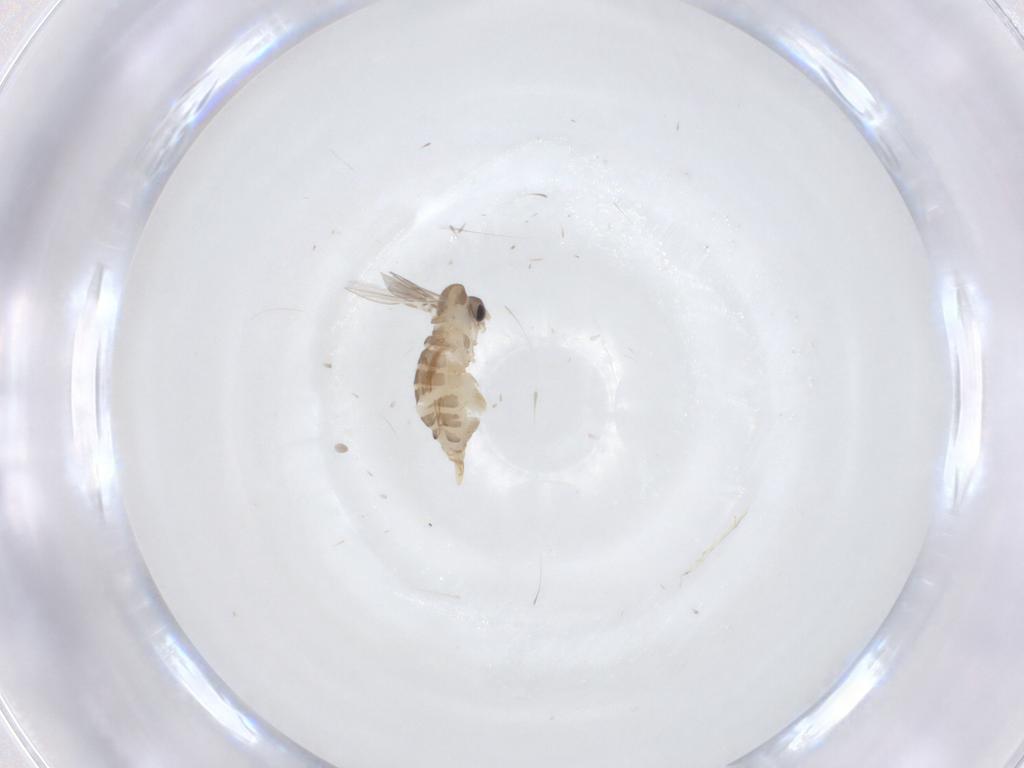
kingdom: Animalia
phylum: Arthropoda
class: Insecta
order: Diptera
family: Psychodidae
